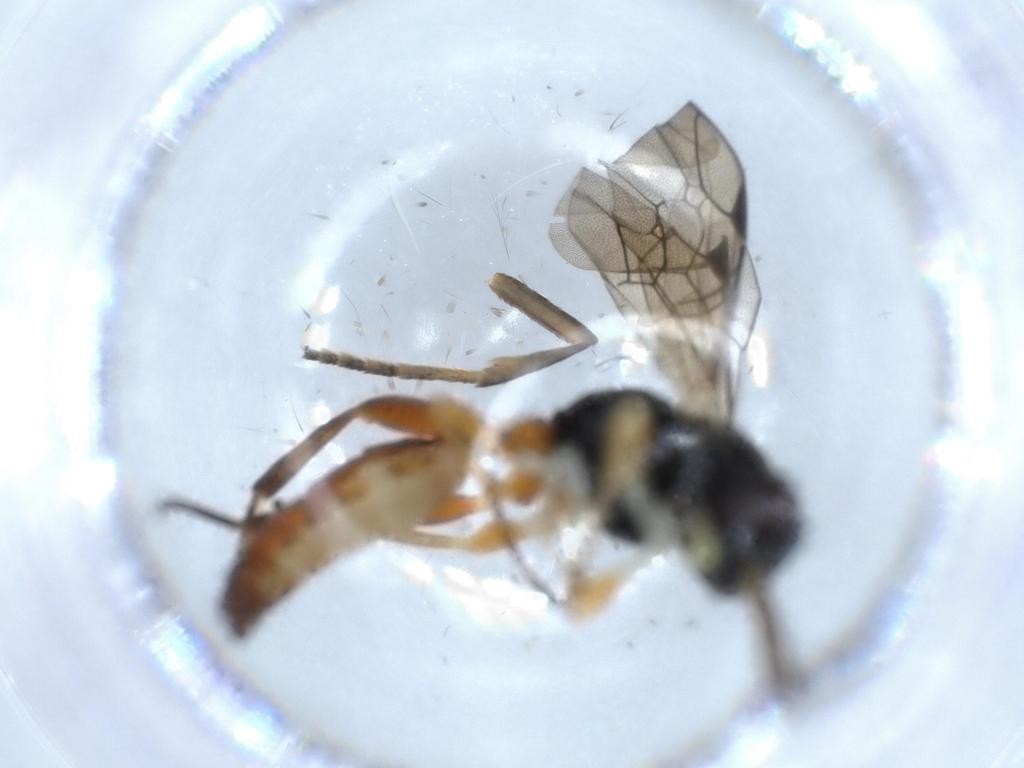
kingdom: Animalia
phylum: Arthropoda
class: Insecta
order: Hymenoptera
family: Ichneumonidae
